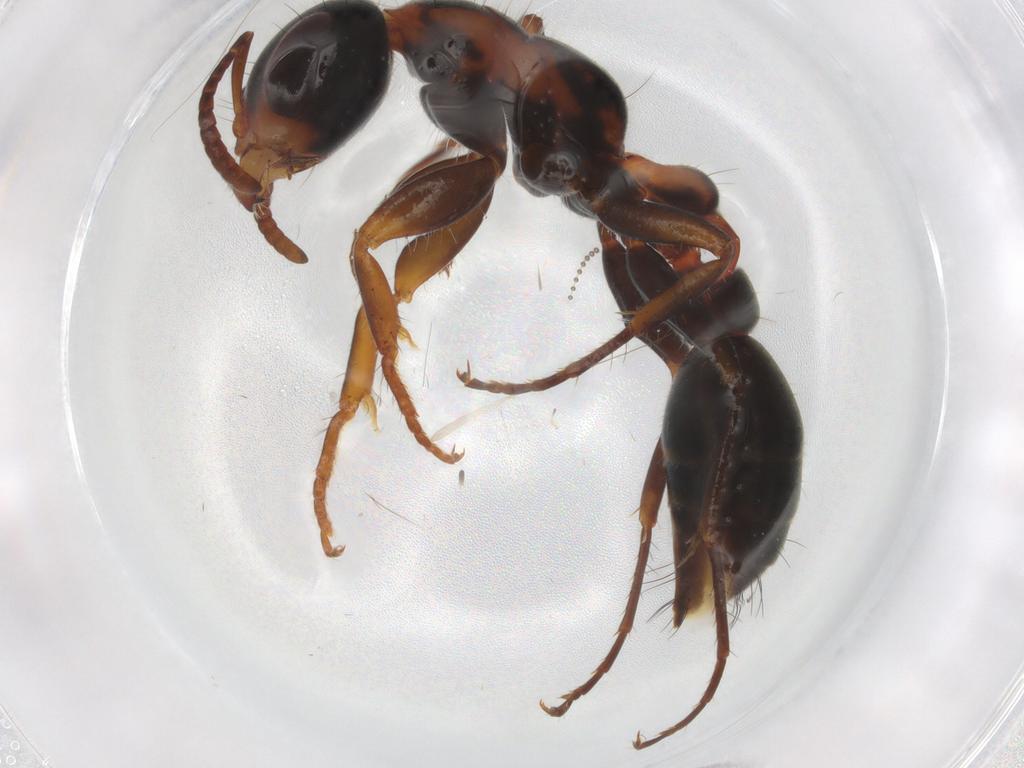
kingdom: Animalia
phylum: Arthropoda
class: Insecta
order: Hymenoptera
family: Formicidae
